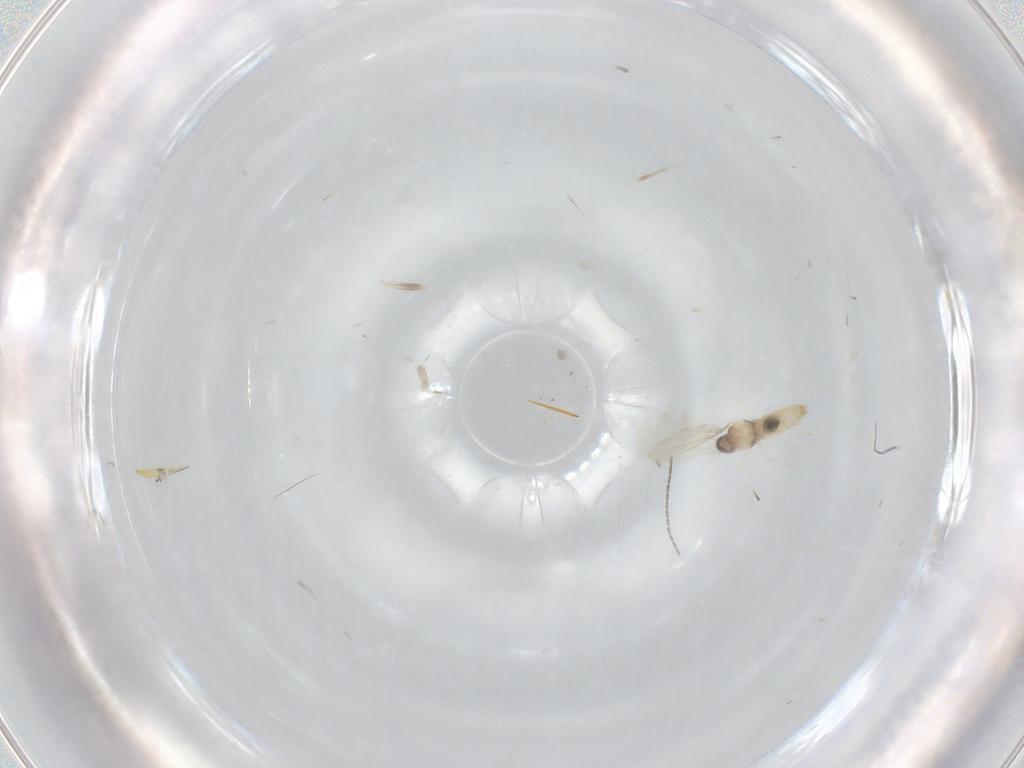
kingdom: Animalia
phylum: Arthropoda
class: Insecta
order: Diptera
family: Cecidomyiidae
